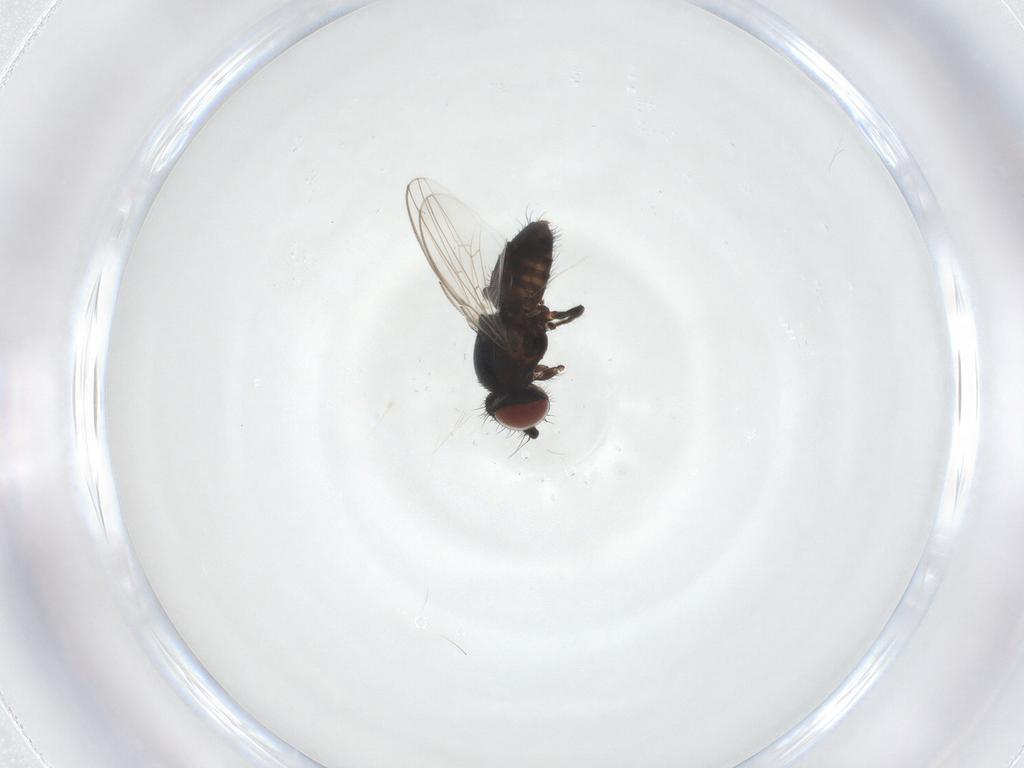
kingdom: Animalia
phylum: Arthropoda
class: Insecta
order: Diptera
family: Milichiidae
